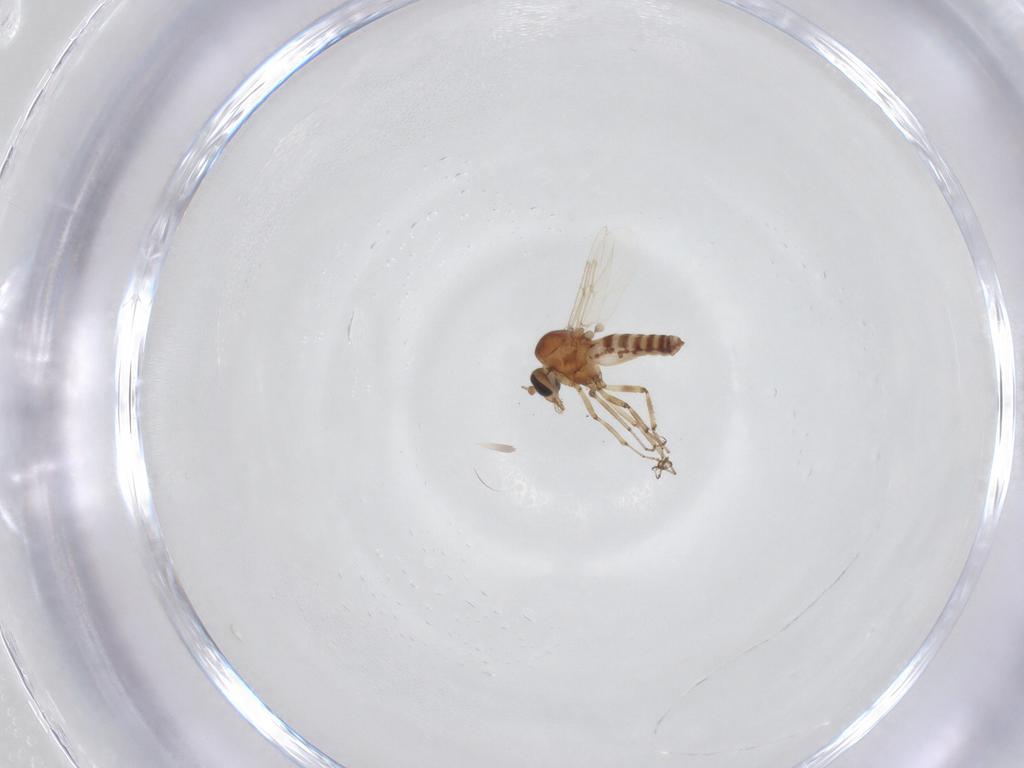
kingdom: Animalia
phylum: Arthropoda
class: Insecta
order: Diptera
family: Ceratopogonidae
